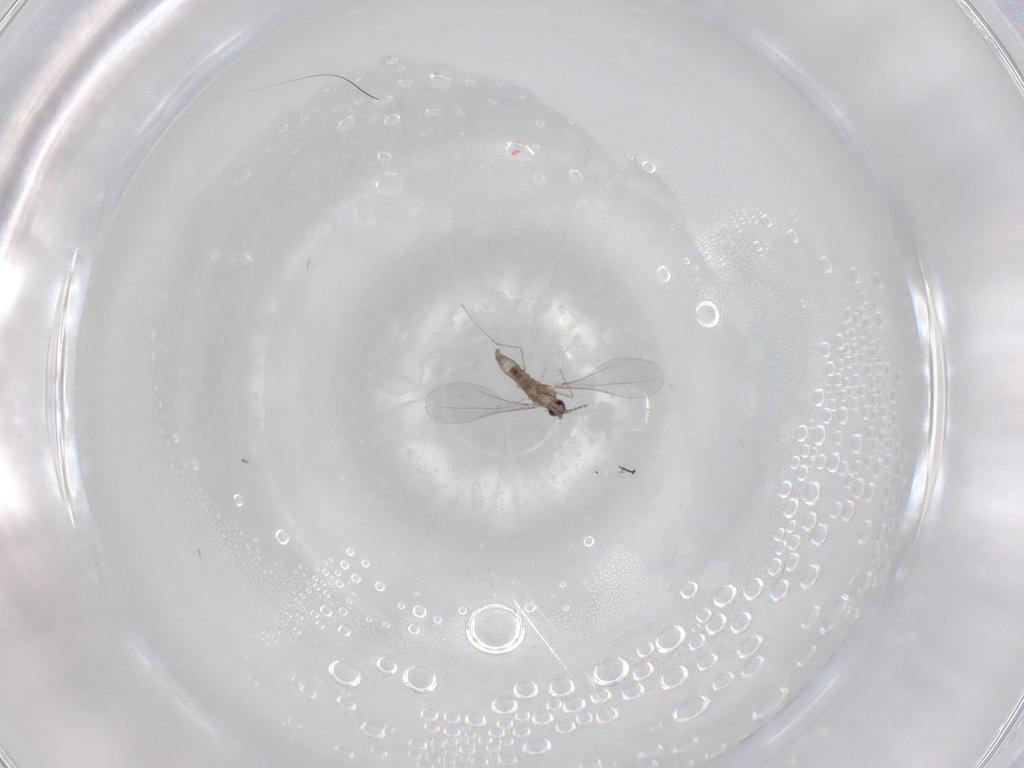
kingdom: Animalia
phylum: Arthropoda
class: Insecta
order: Diptera
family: Cecidomyiidae
